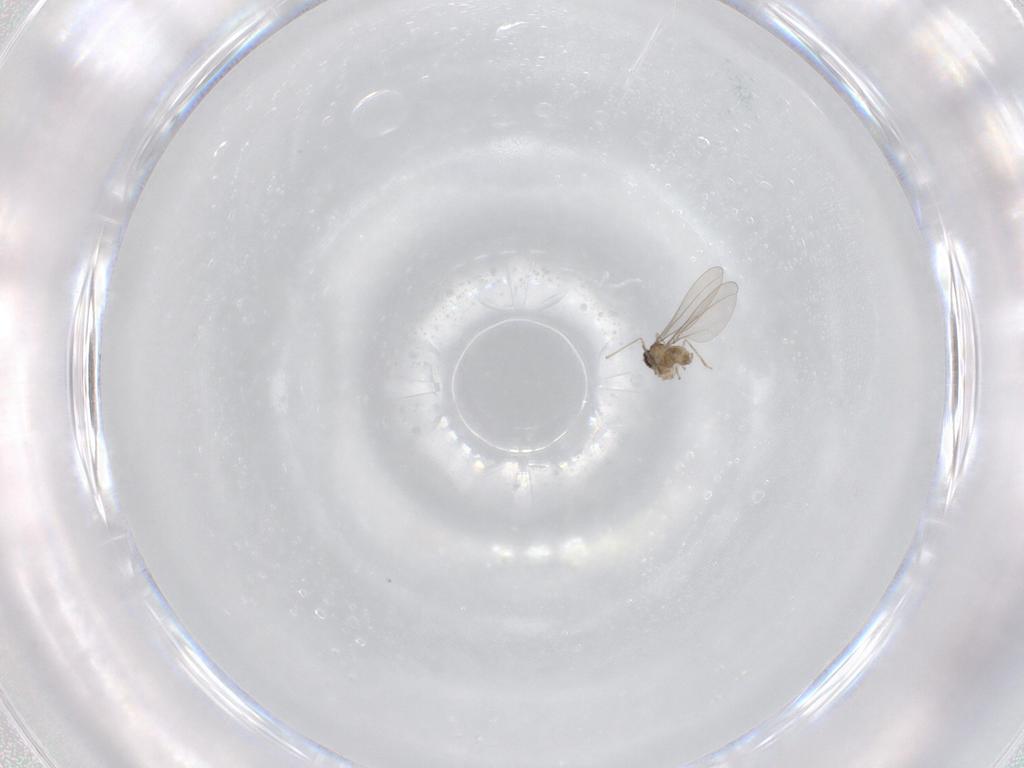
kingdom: Animalia
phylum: Arthropoda
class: Insecta
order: Diptera
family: Cecidomyiidae
